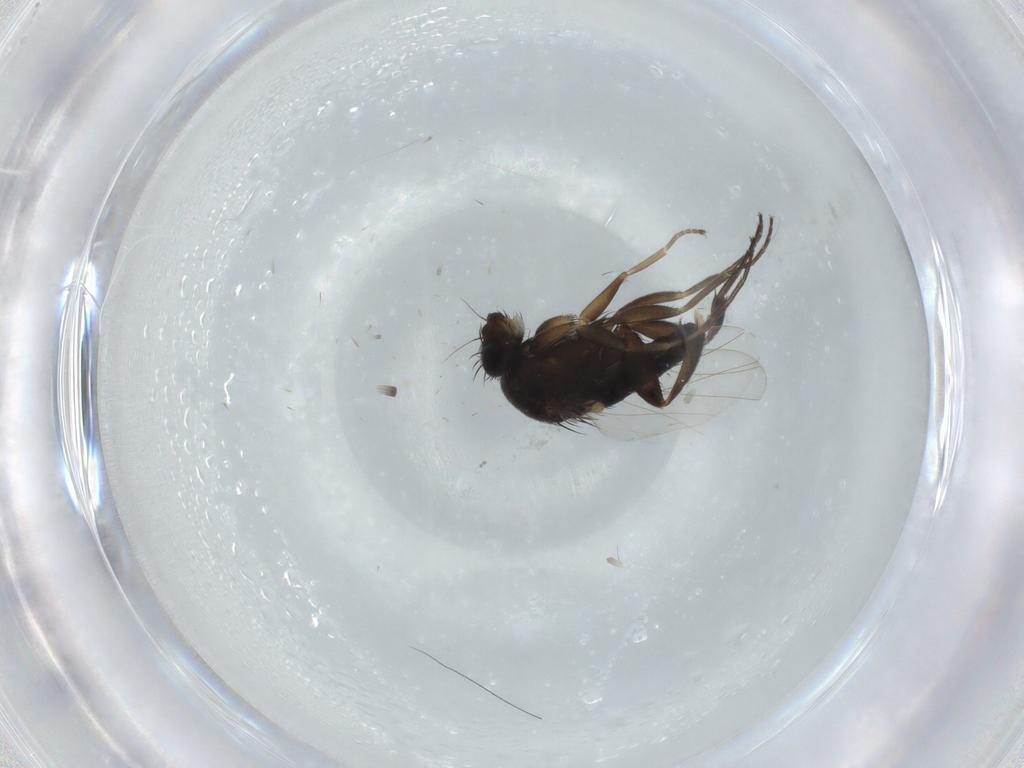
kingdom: Animalia
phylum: Arthropoda
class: Insecta
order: Diptera
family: Phoridae
